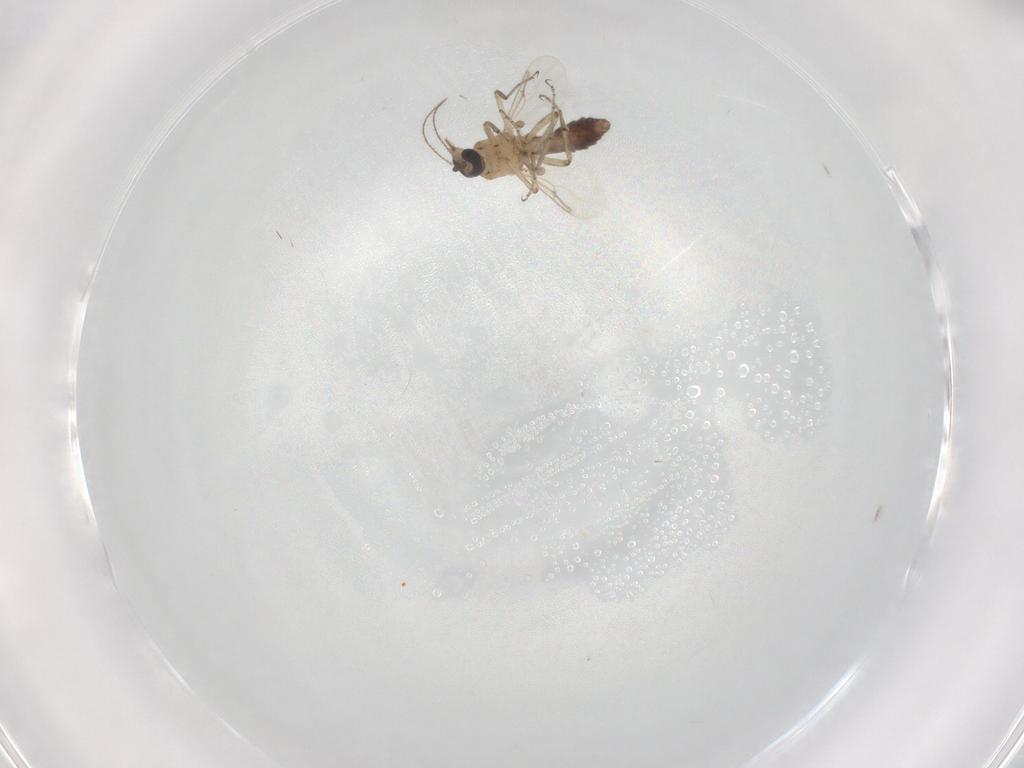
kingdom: Animalia
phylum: Arthropoda
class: Insecta
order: Diptera
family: Ceratopogonidae
